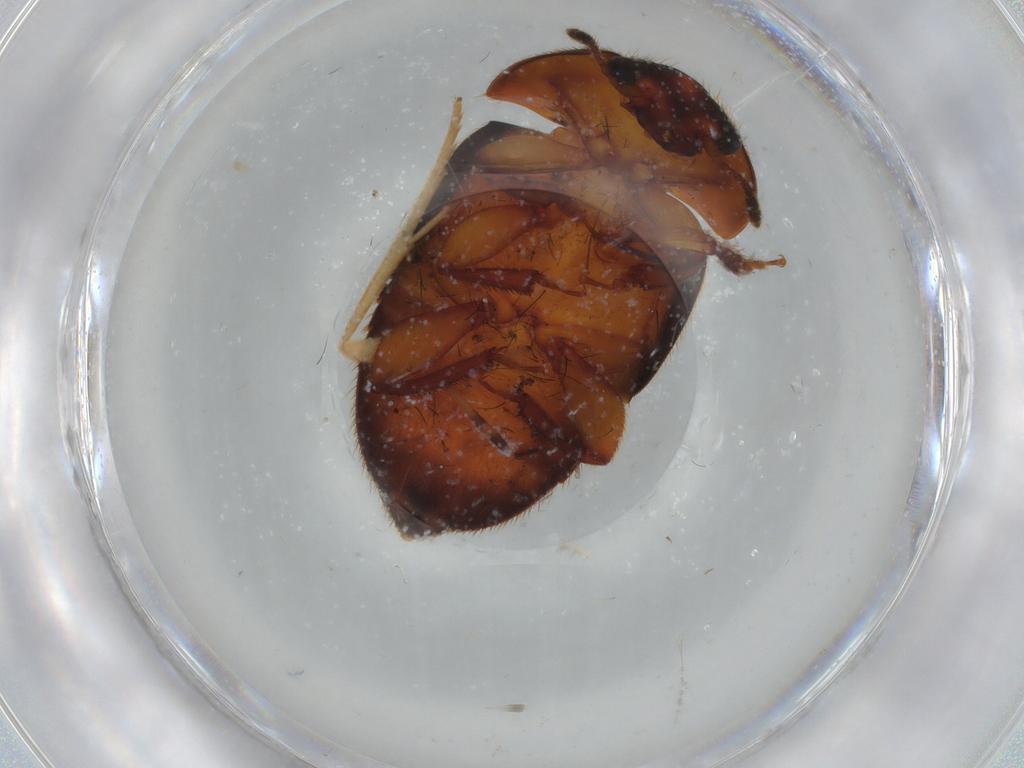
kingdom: Animalia
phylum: Arthropoda
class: Insecta
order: Coleoptera
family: Nitidulidae
